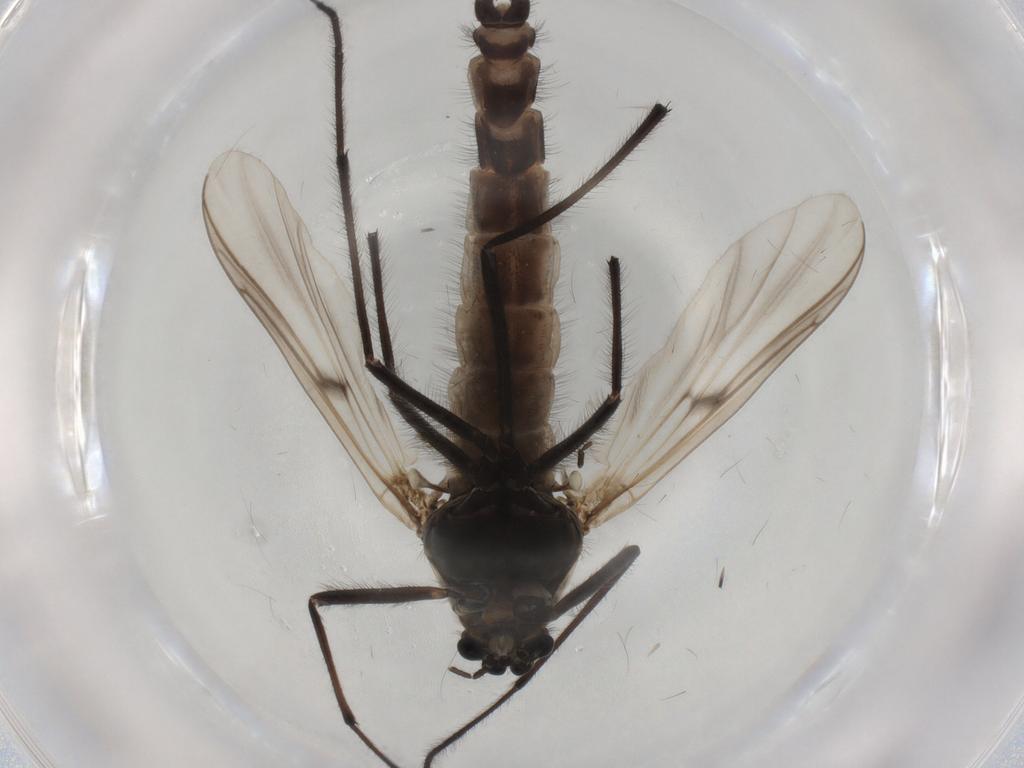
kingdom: Animalia
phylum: Arthropoda
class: Insecta
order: Diptera
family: Chironomidae
